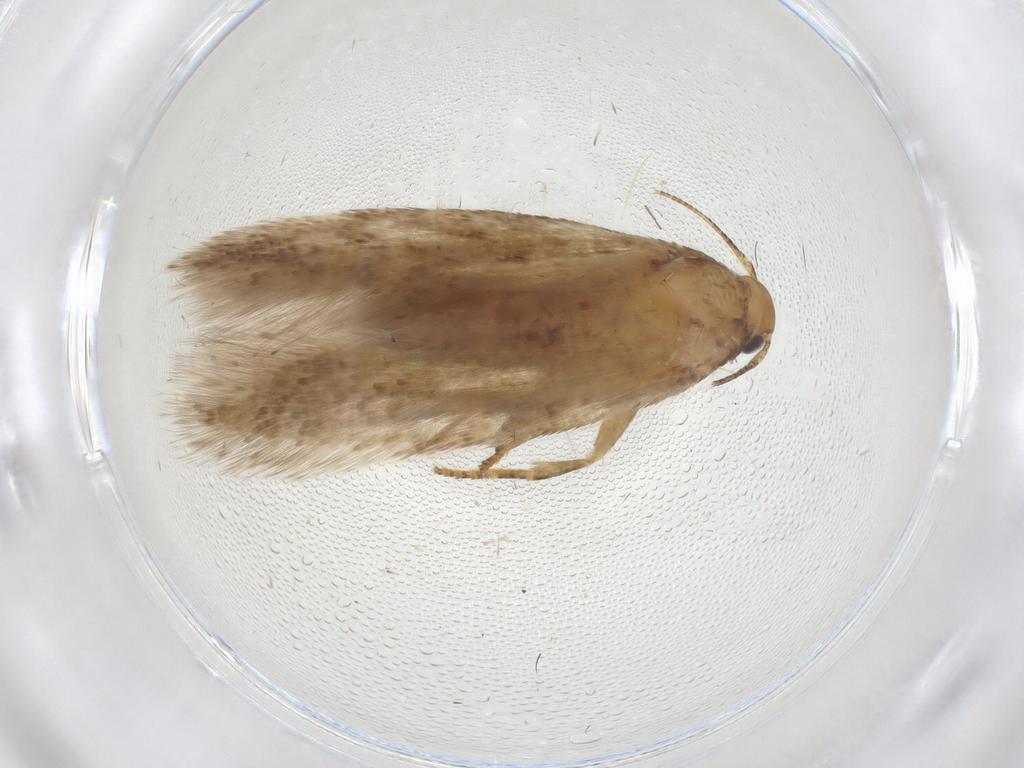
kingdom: Animalia
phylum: Arthropoda
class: Insecta
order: Lepidoptera
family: Gelechiidae
